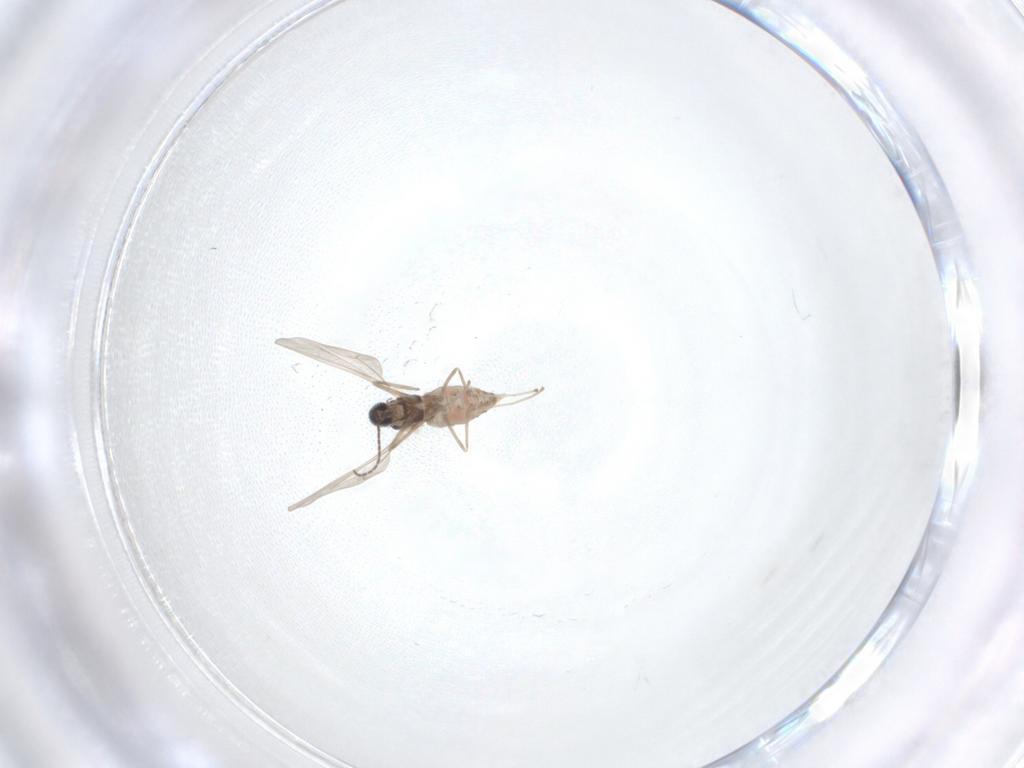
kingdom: Animalia
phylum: Arthropoda
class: Insecta
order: Diptera
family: Cecidomyiidae
